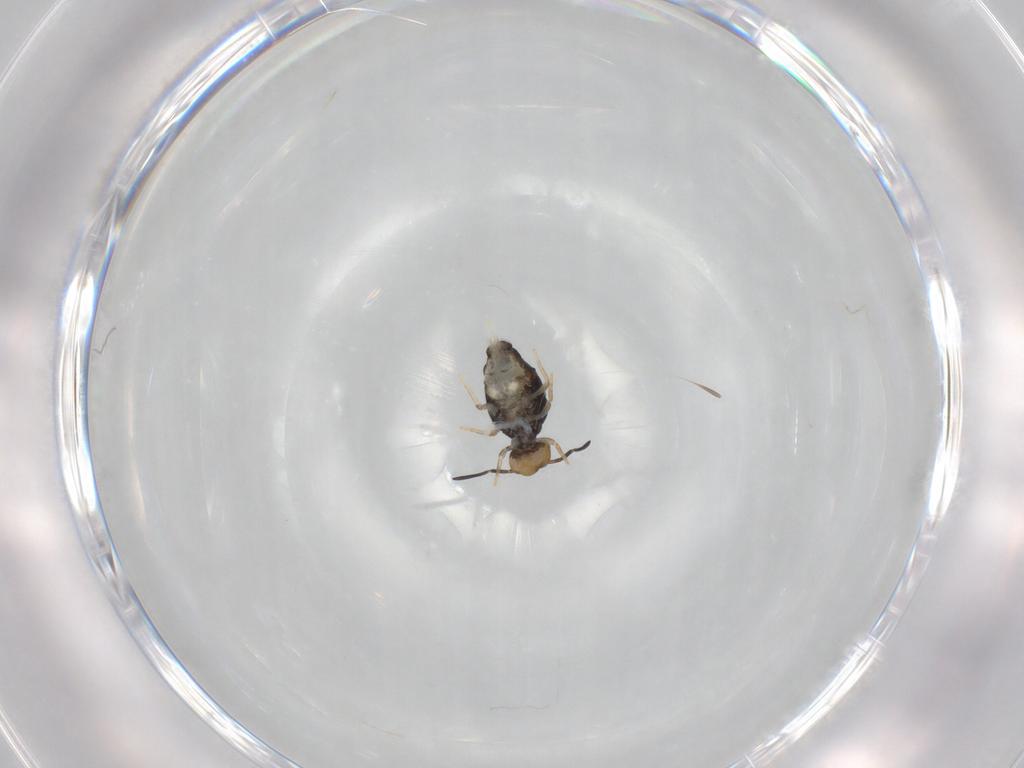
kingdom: Animalia
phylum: Arthropoda
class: Collembola
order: Symphypleona
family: Katiannidae
